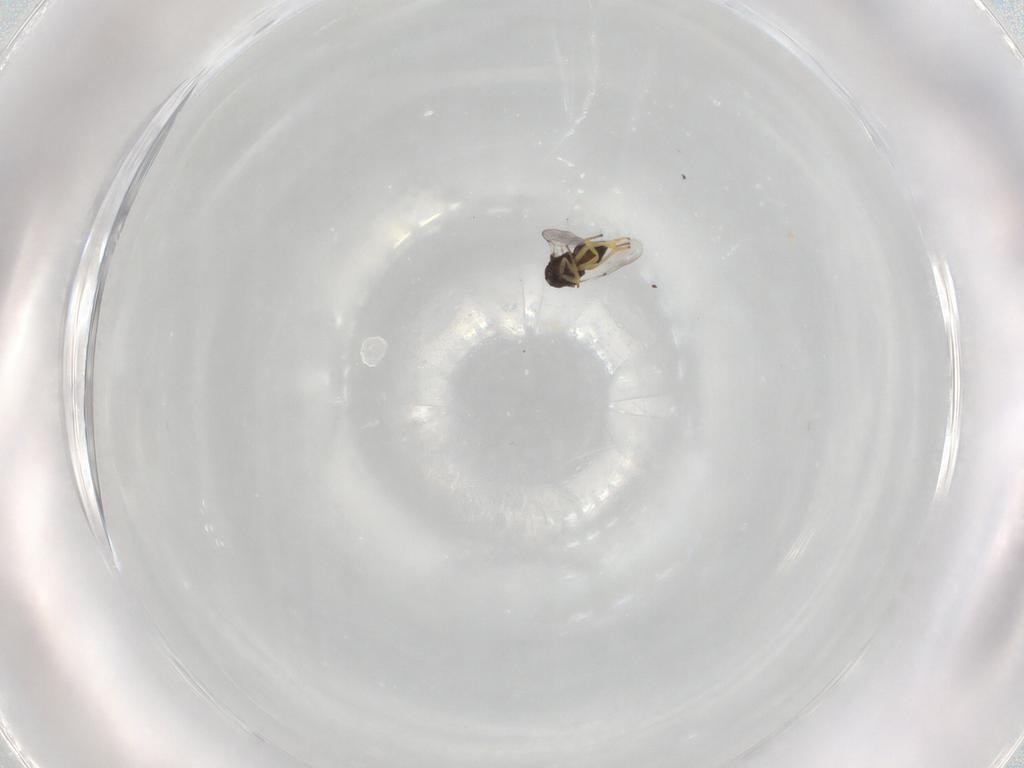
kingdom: Animalia
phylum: Arthropoda
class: Insecta
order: Hymenoptera
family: Encyrtidae
